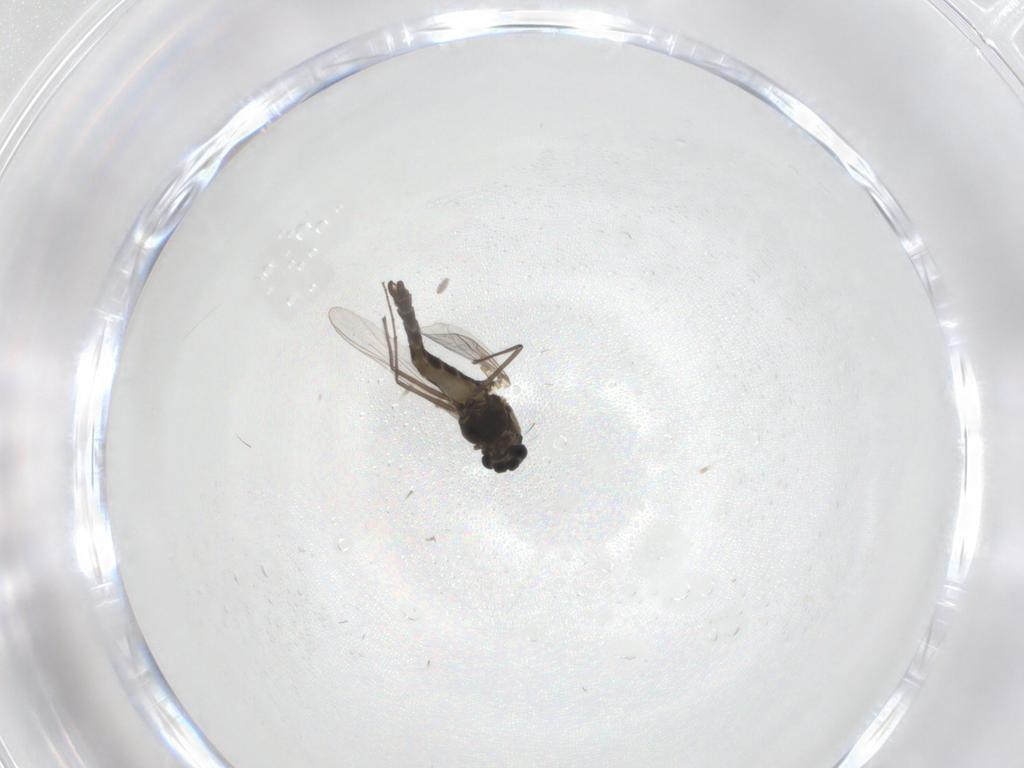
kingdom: Animalia
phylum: Arthropoda
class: Insecta
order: Diptera
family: Chironomidae
